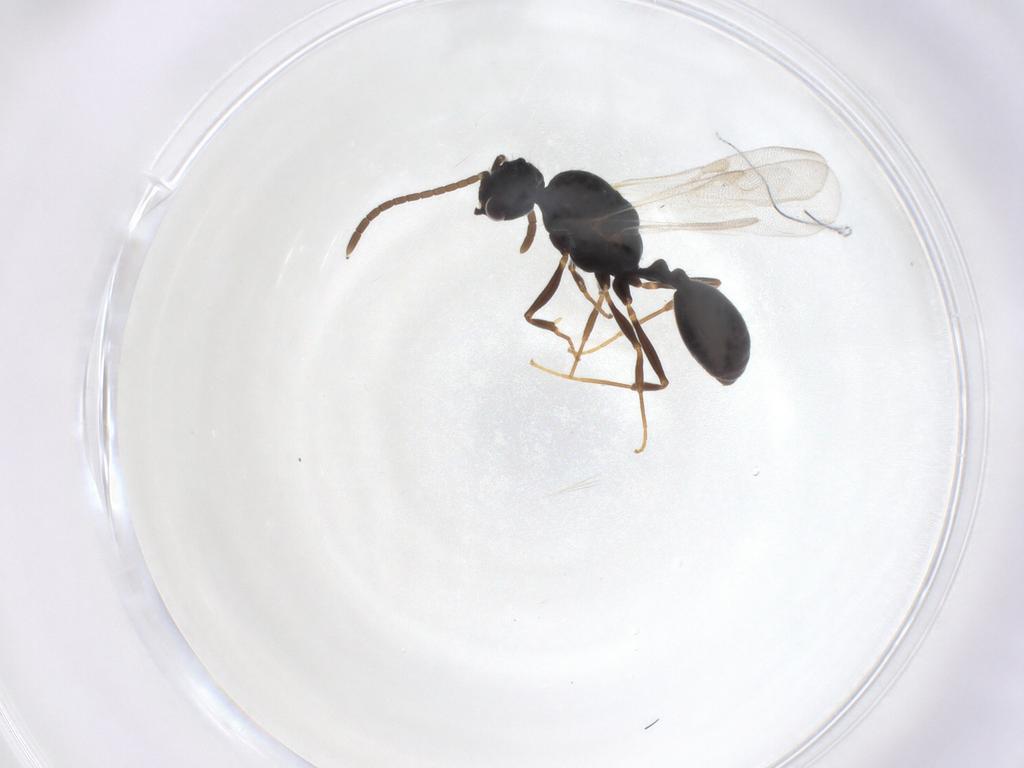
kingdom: Animalia
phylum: Arthropoda
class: Insecta
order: Hymenoptera
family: Formicidae
